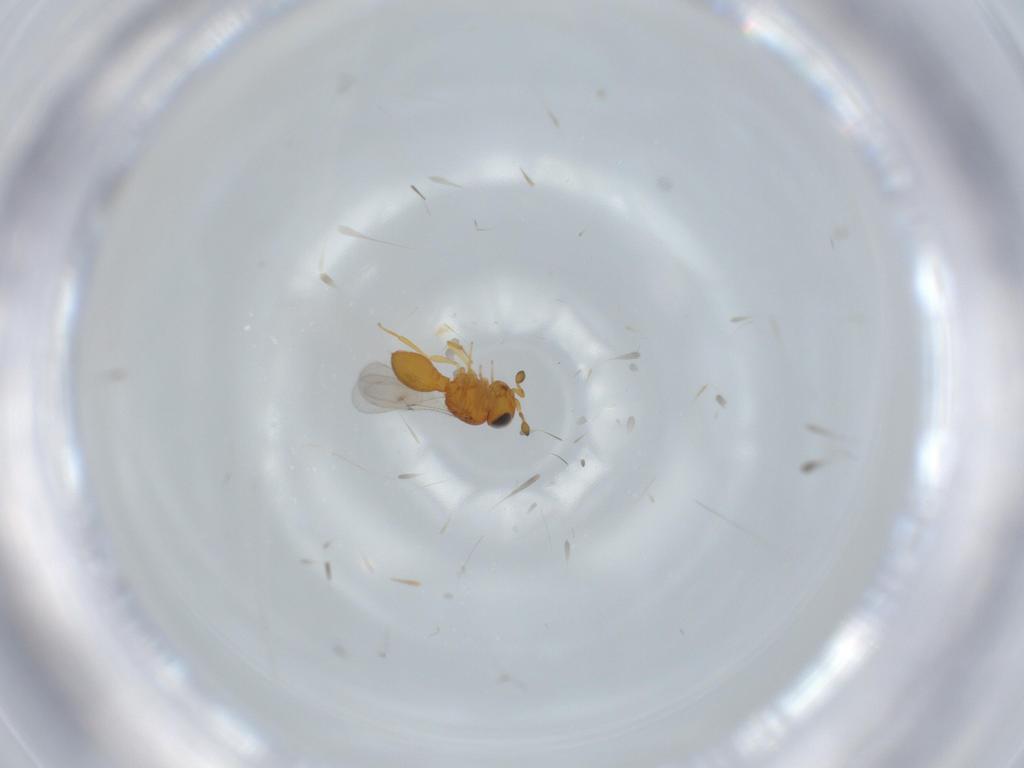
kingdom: Animalia
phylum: Arthropoda
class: Insecta
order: Hymenoptera
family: Scelionidae
